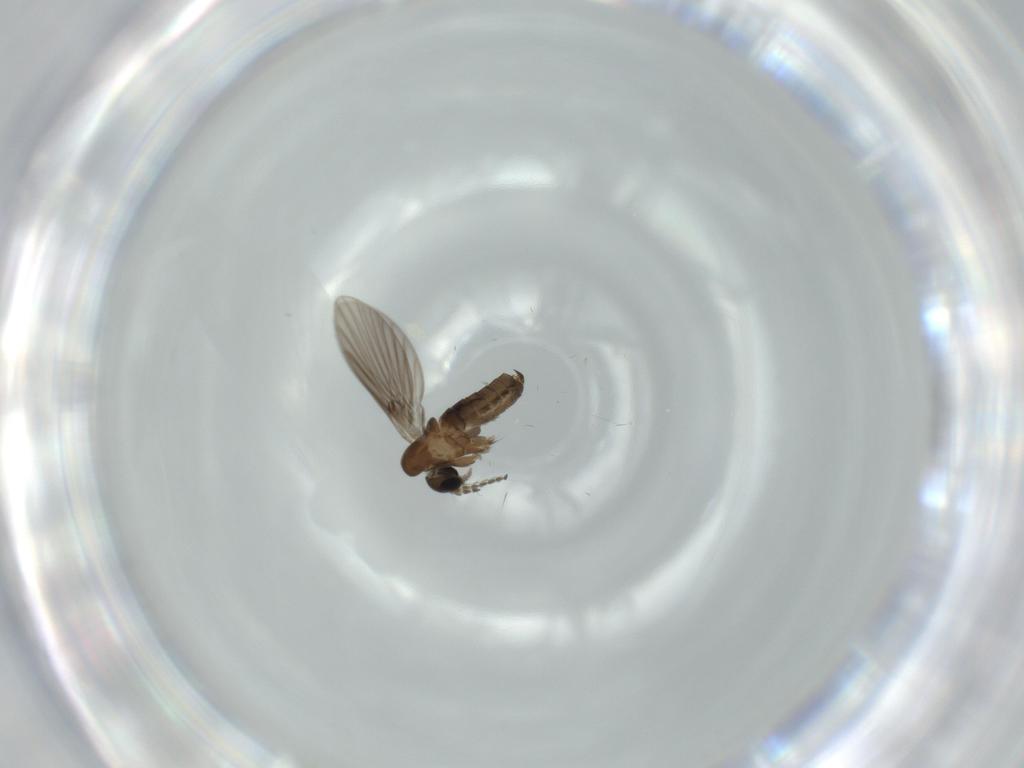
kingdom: Animalia
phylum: Arthropoda
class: Insecta
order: Diptera
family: Psychodidae
